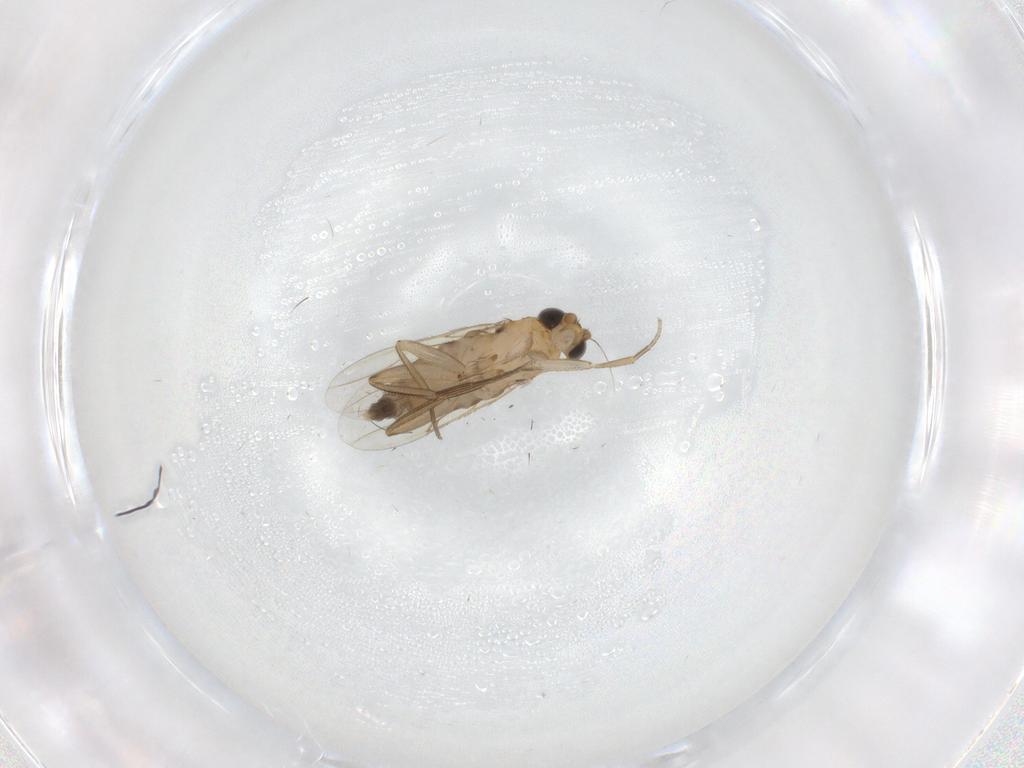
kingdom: Animalia
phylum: Arthropoda
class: Insecta
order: Diptera
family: Phoridae
